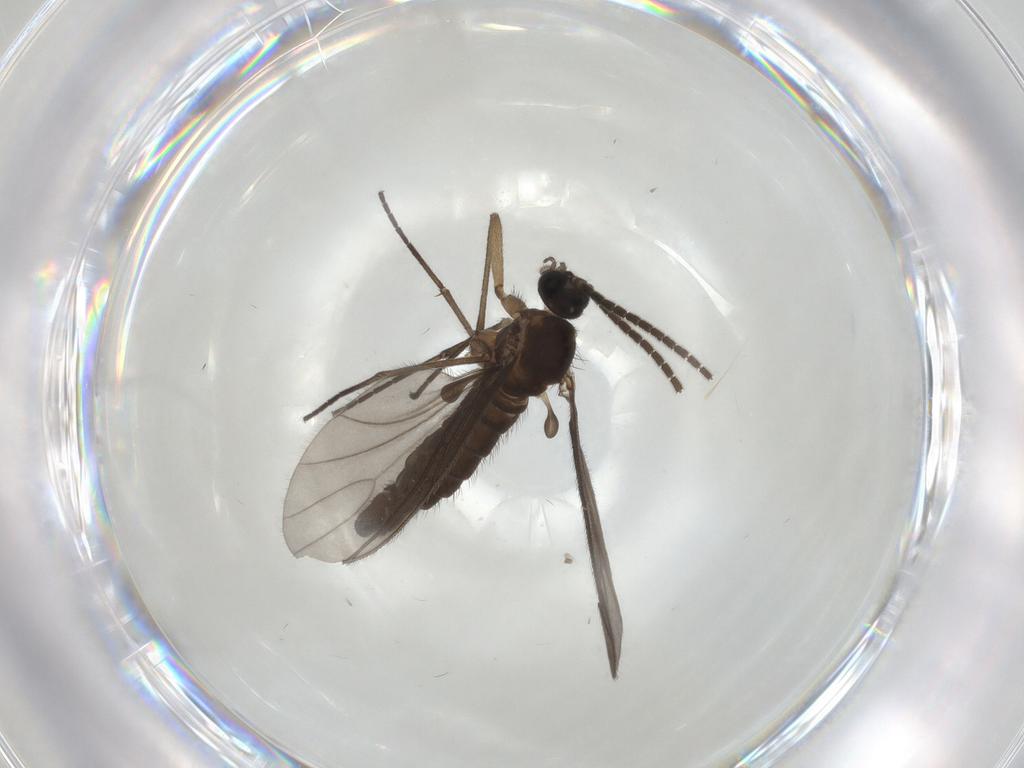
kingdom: Animalia
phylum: Arthropoda
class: Insecta
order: Diptera
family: Sciaridae
